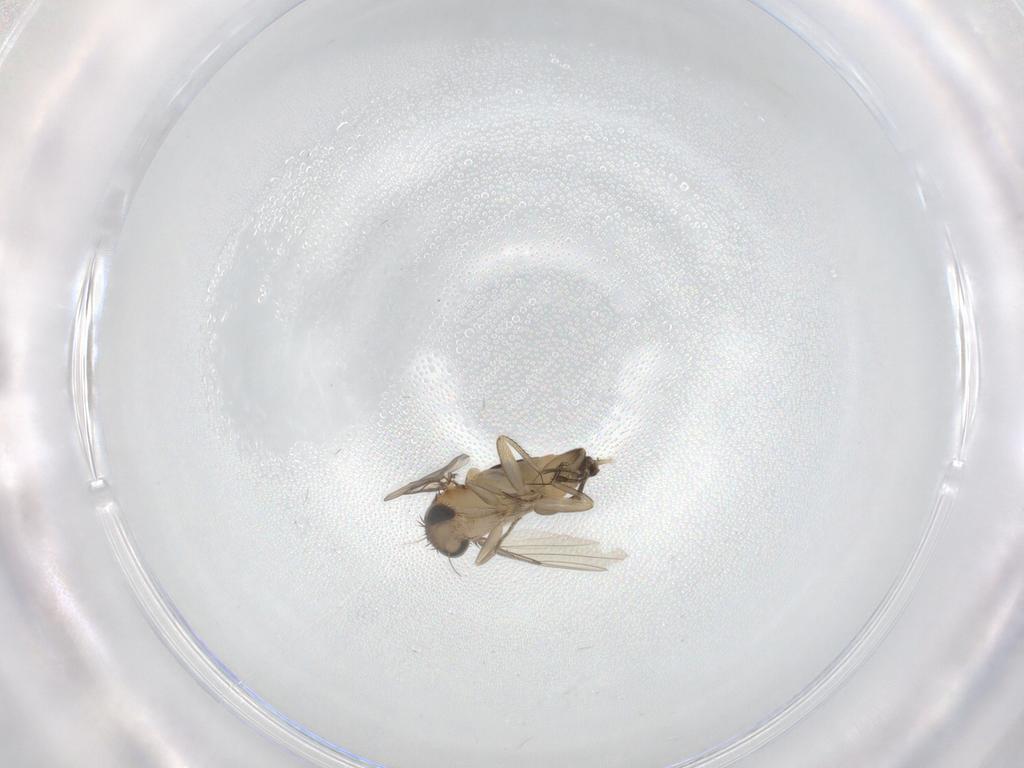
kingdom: Animalia
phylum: Arthropoda
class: Insecta
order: Diptera
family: Phoridae
